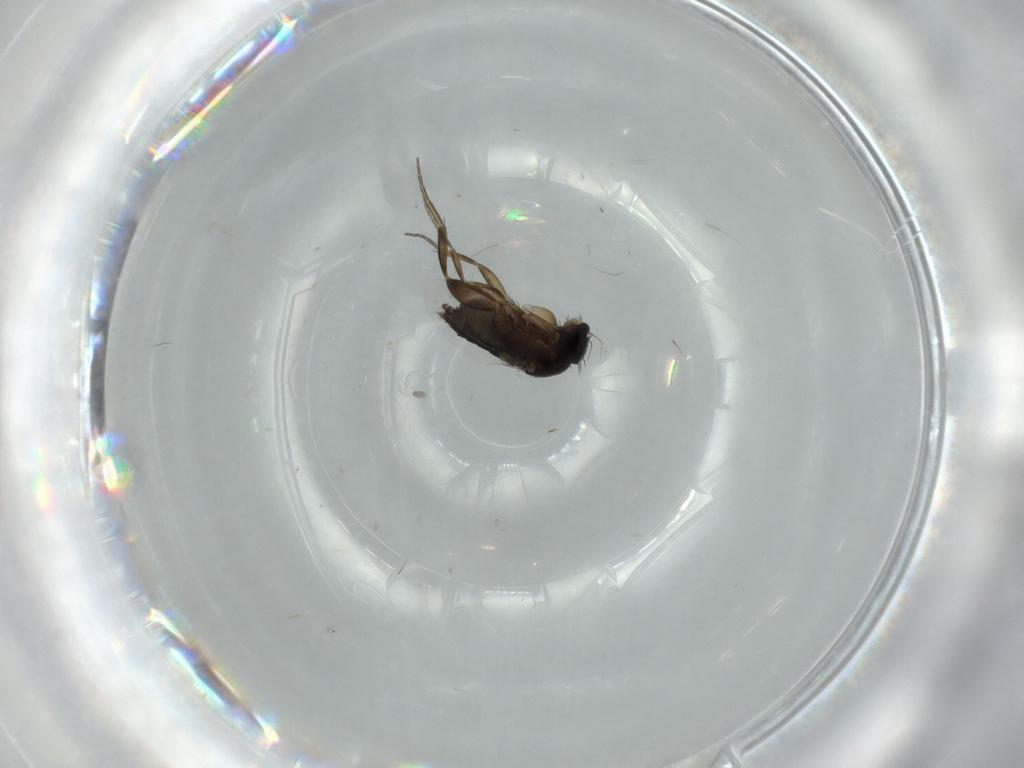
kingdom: Animalia
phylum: Arthropoda
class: Insecta
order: Diptera
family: Phoridae
